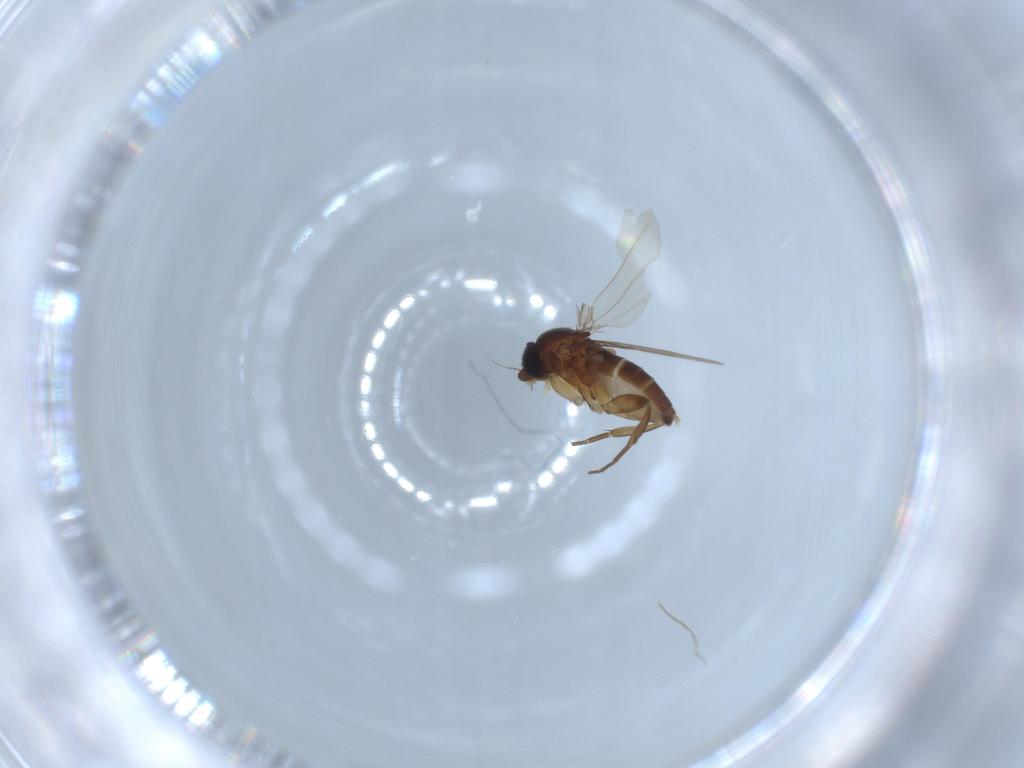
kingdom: Animalia
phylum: Arthropoda
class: Insecta
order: Diptera
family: Phoridae
